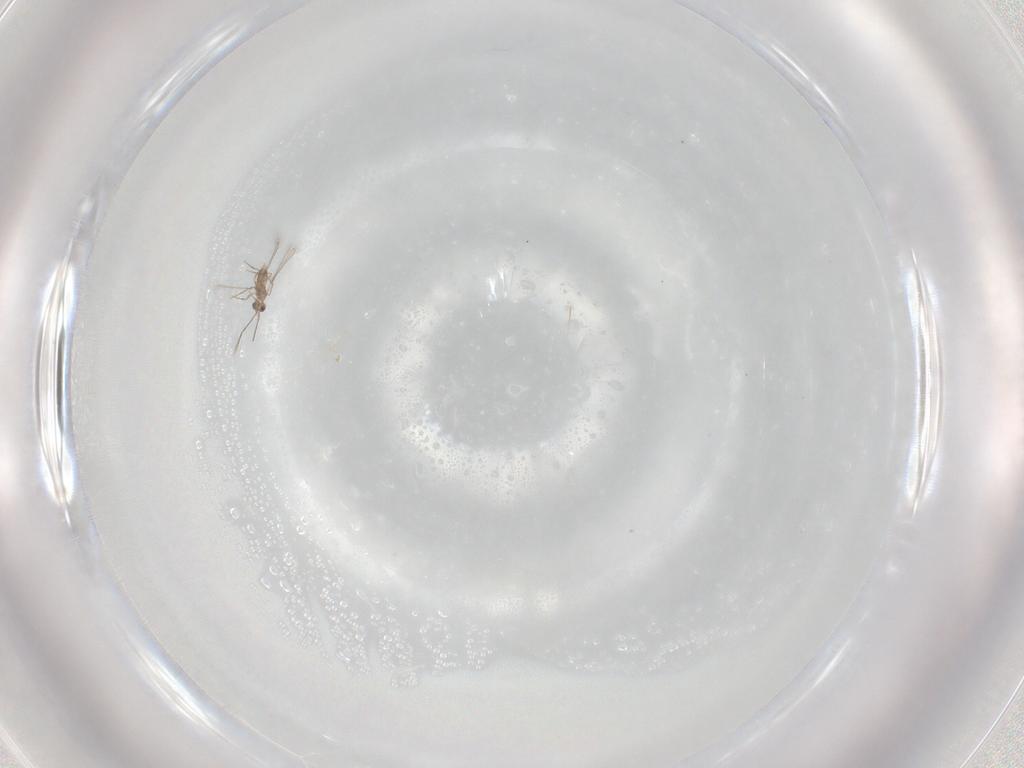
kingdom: Animalia
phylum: Arthropoda
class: Insecta
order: Hymenoptera
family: Mymaridae
